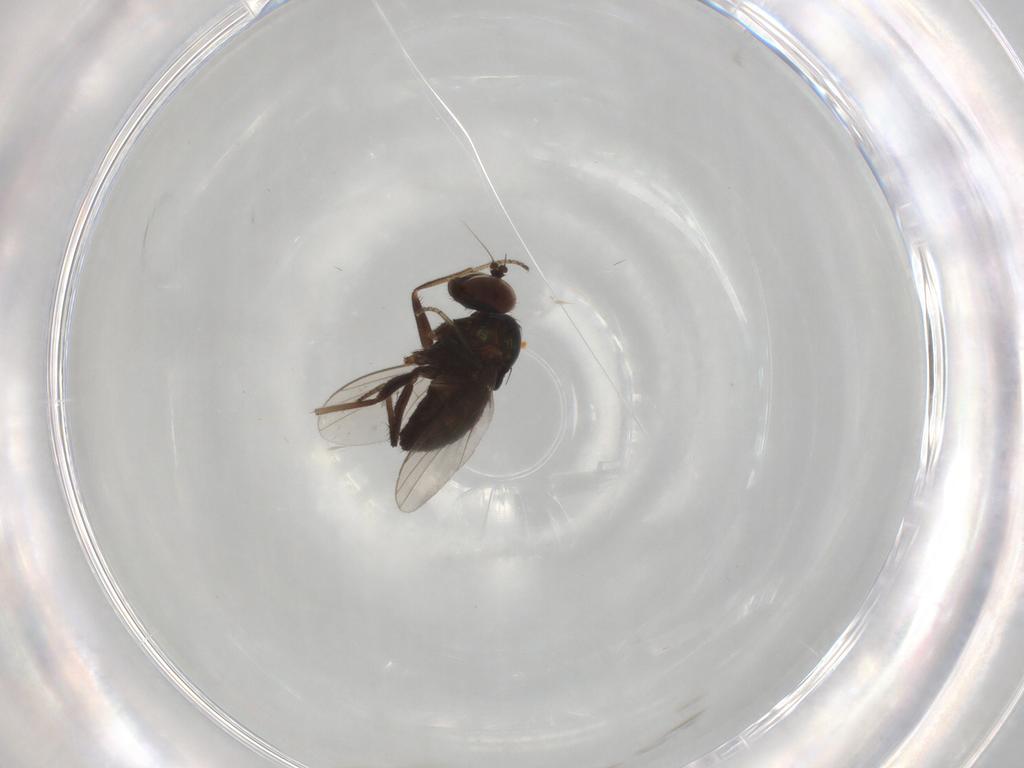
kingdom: Animalia
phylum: Arthropoda
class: Insecta
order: Diptera
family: Dolichopodidae
